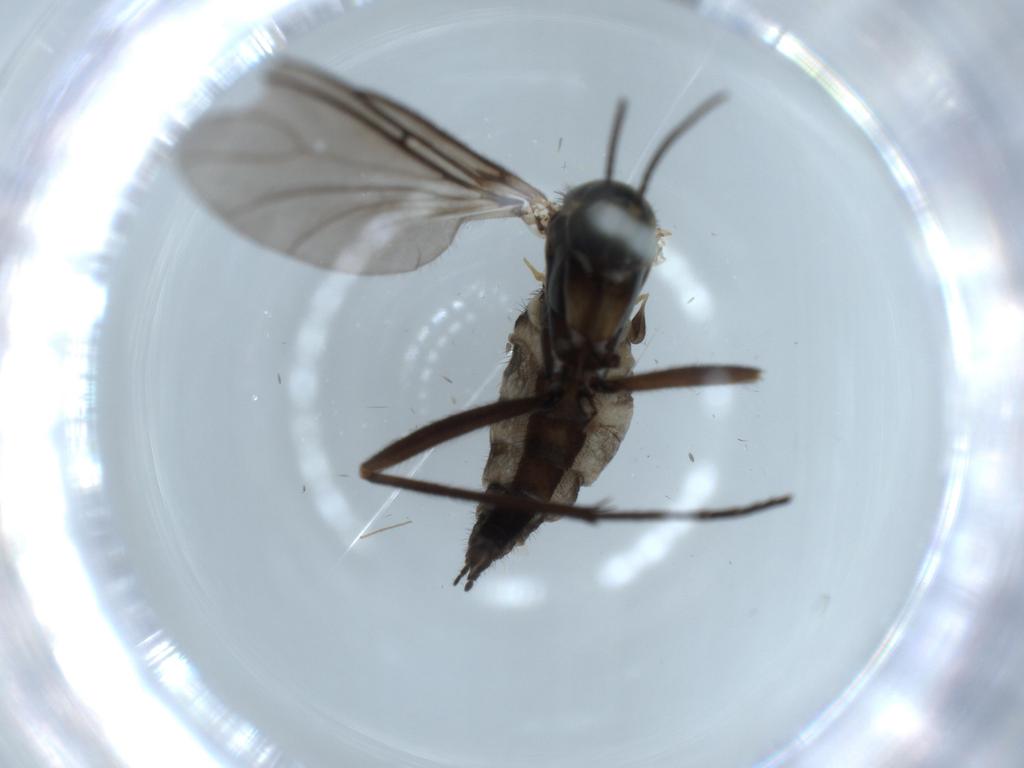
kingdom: Animalia
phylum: Arthropoda
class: Insecta
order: Diptera
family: Sciaridae
